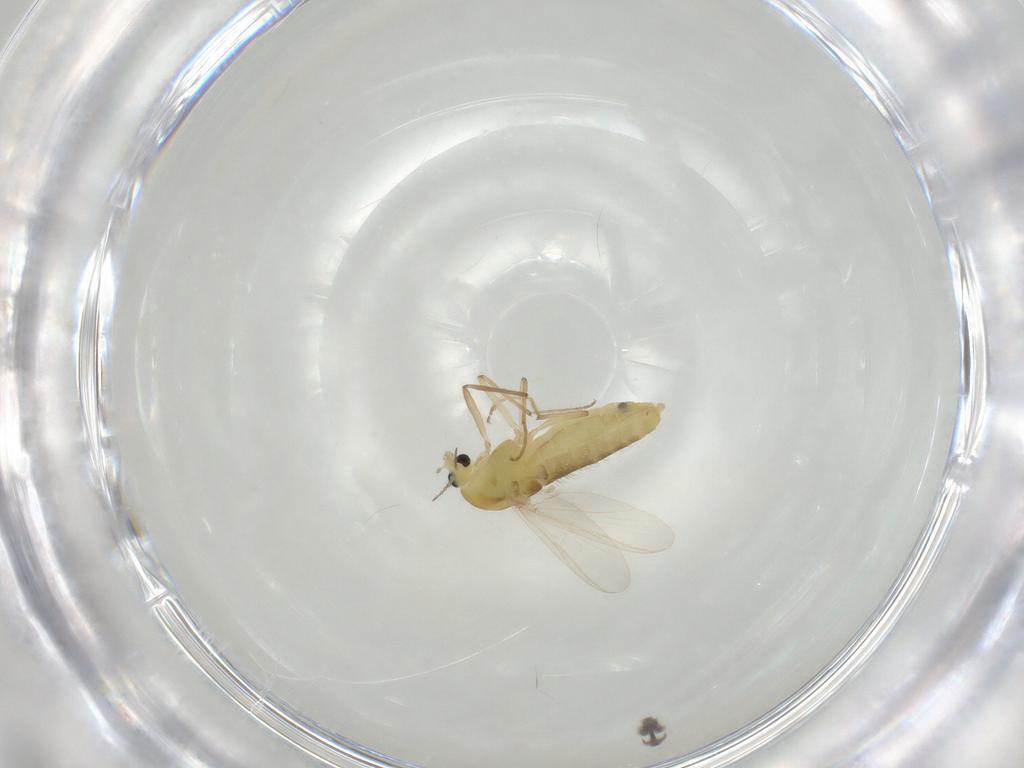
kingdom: Animalia
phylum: Arthropoda
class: Insecta
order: Diptera
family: Chironomidae
